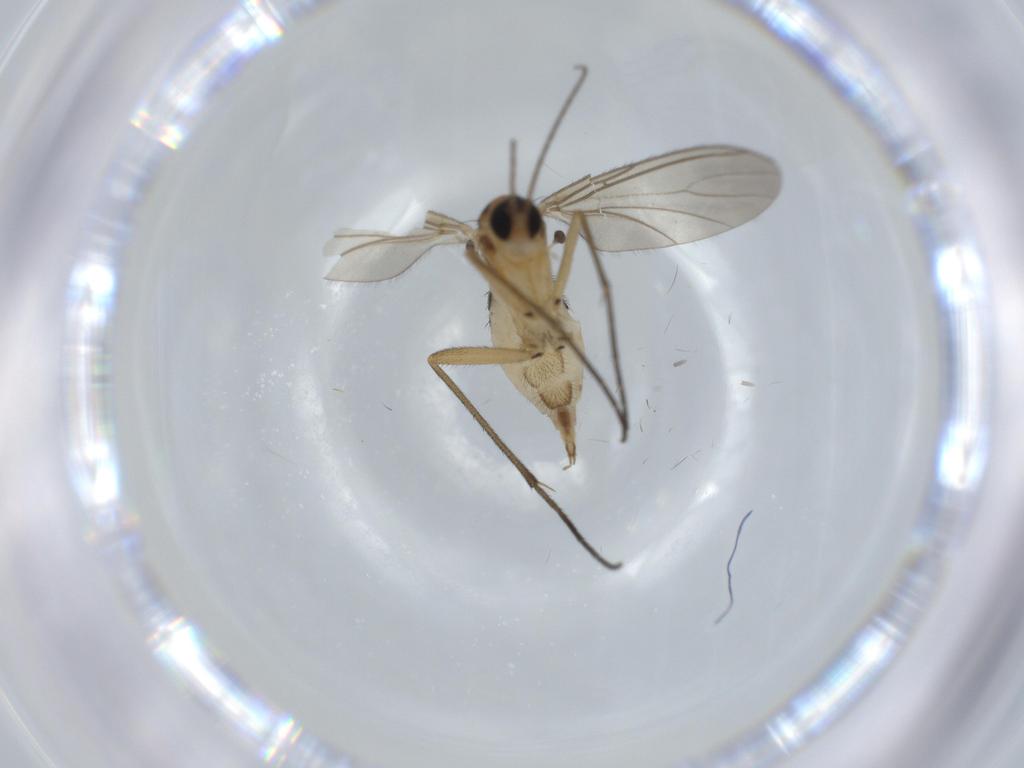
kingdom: Animalia
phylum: Arthropoda
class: Insecta
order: Diptera
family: Sciaridae
